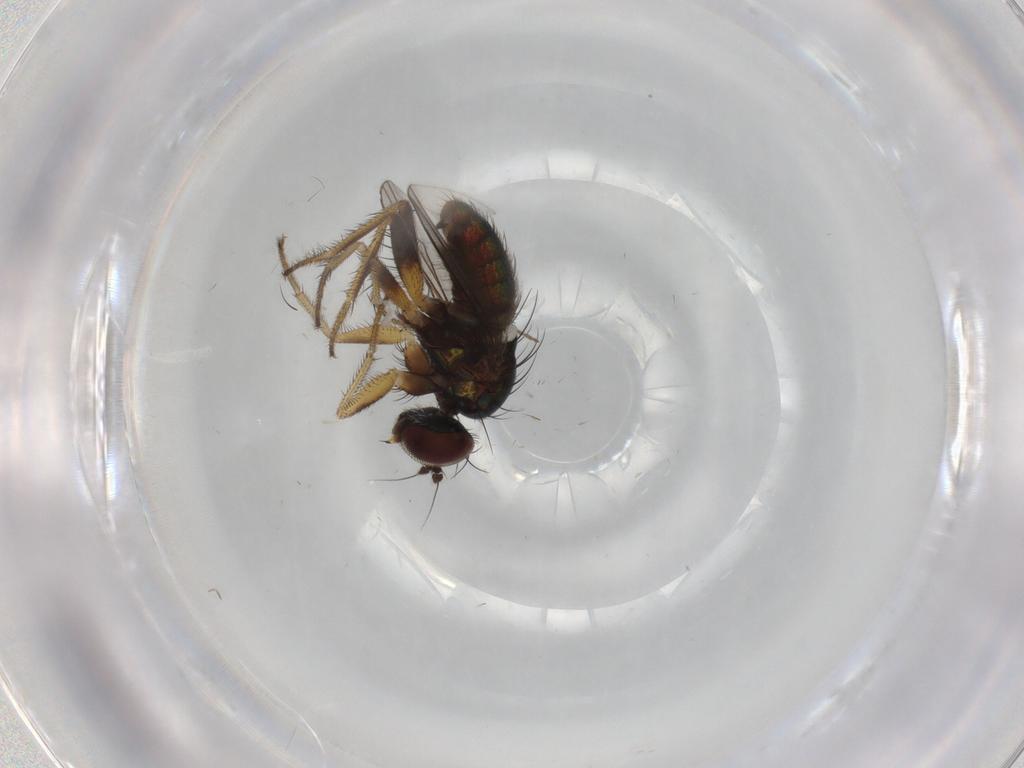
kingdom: Animalia
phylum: Arthropoda
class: Insecta
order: Diptera
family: Dolichopodidae
